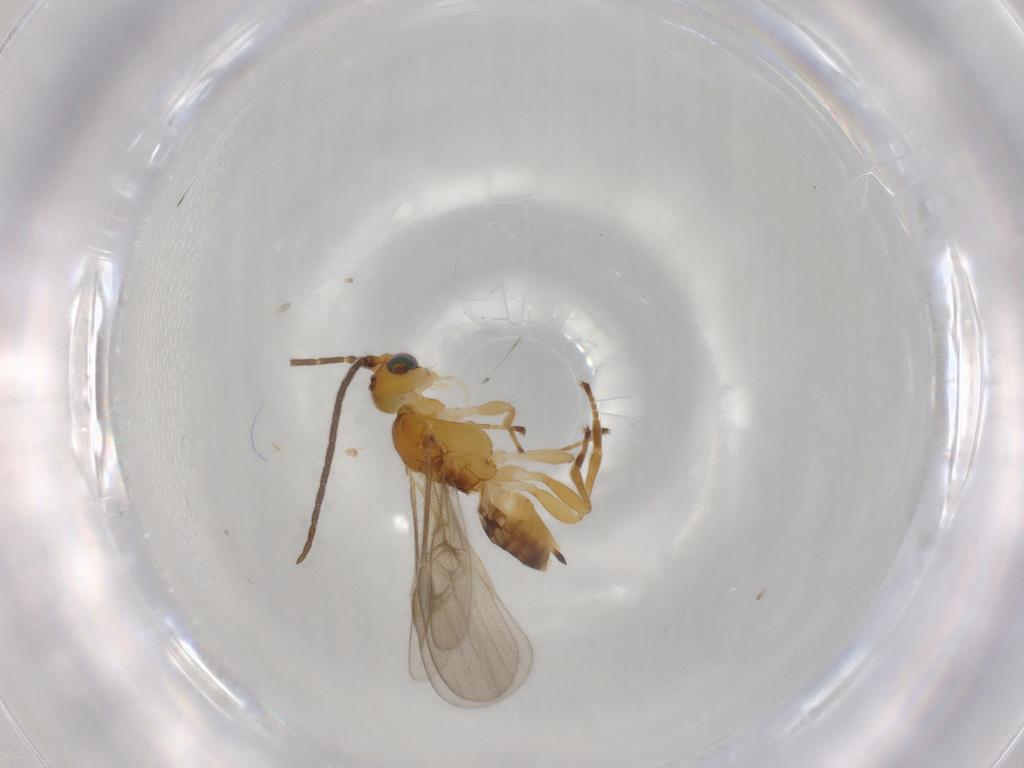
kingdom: Animalia
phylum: Arthropoda
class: Insecta
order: Hymenoptera
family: Braconidae
